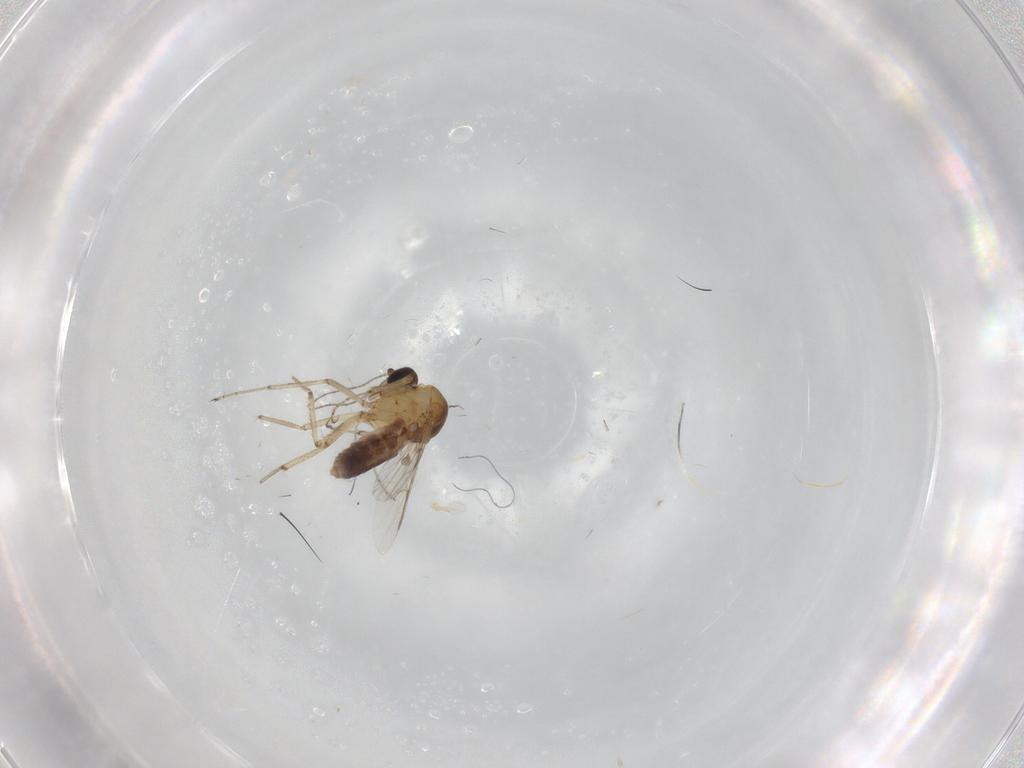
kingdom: Animalia
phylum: Arthropoda
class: Insecta
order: Diptera
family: Ceratopogonidae
